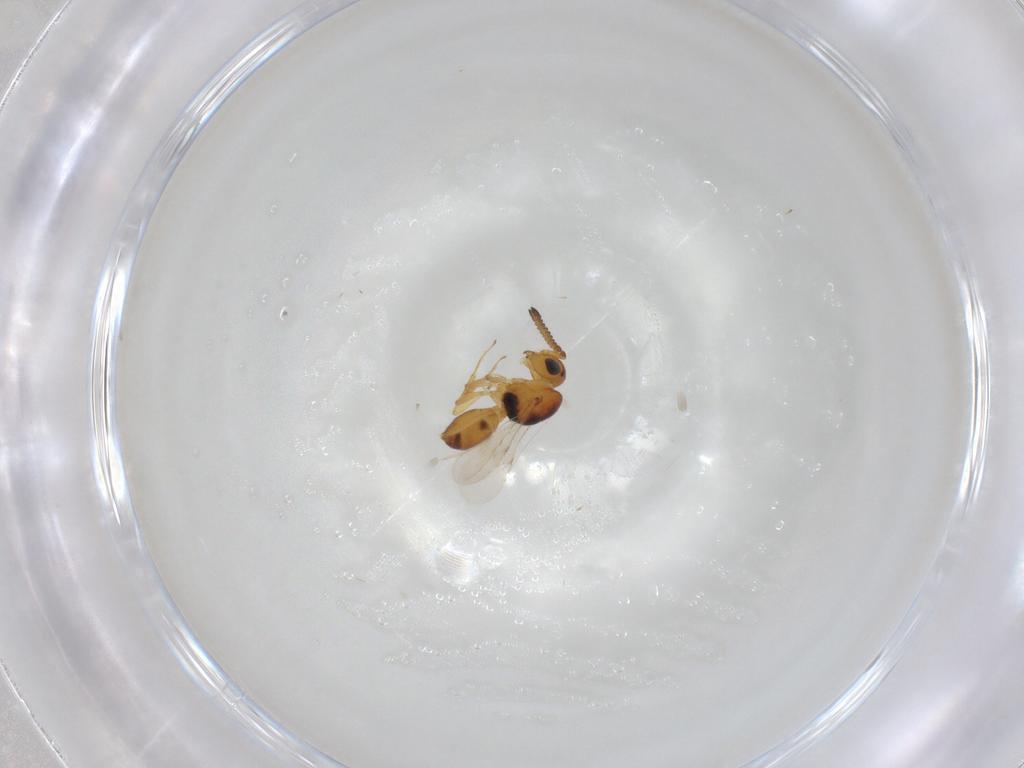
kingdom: Animalia
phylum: Arthropoda
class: Insecta
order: Hymenoptera
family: Scelionidae
